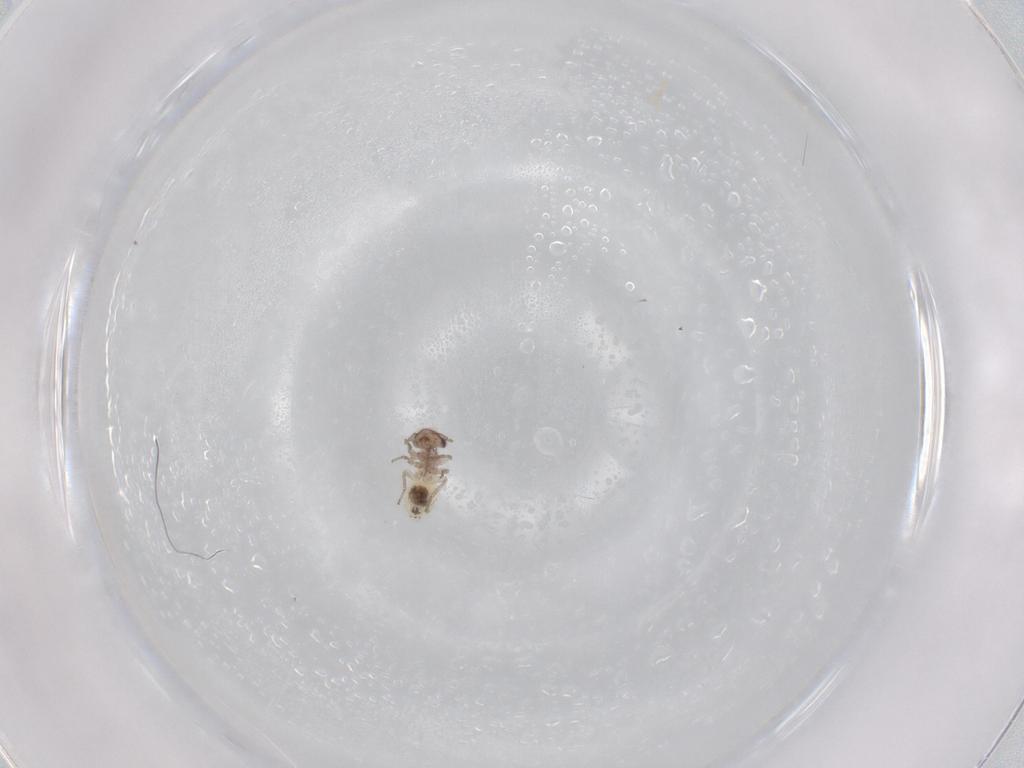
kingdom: Animalia
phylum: Arthropoda
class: Insecta
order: Psocodea
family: Lepidopsocidae
